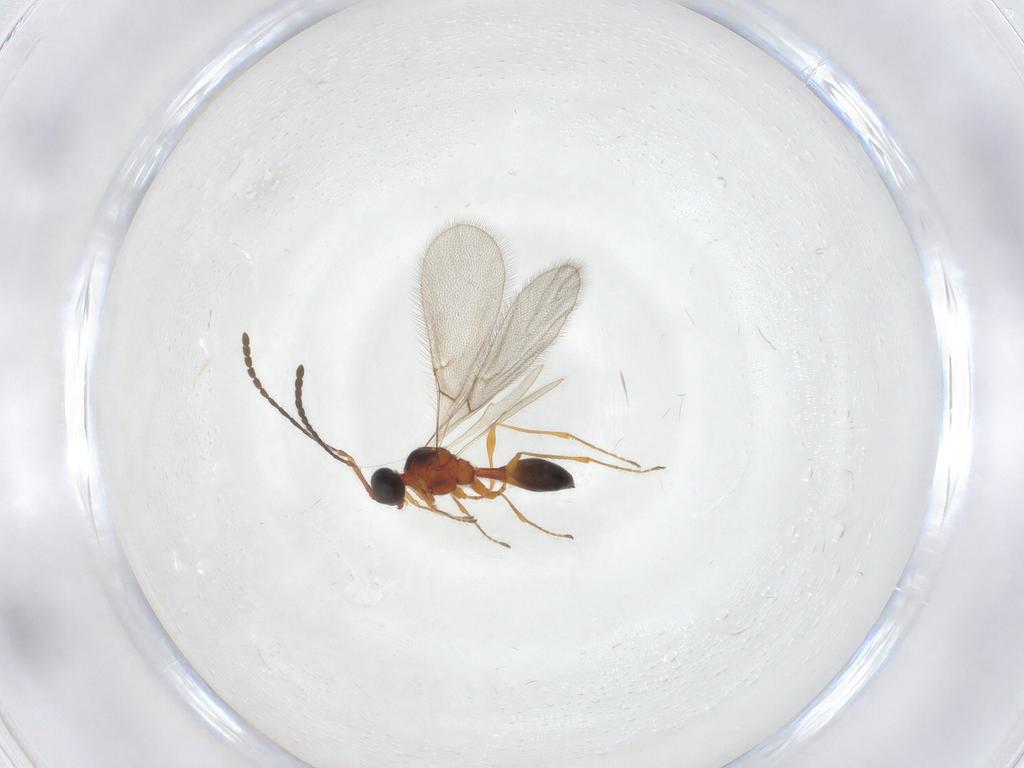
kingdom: Animalia
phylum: Arthropoda
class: Insecta
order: Hymenoptera
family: Diapriidae
